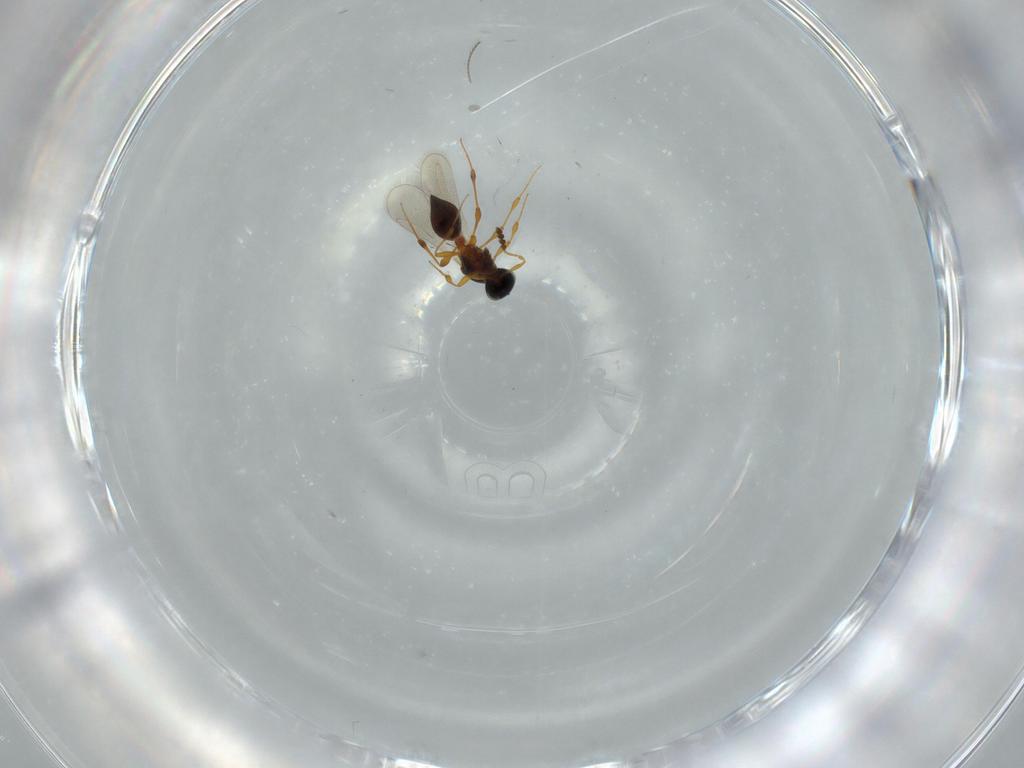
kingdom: Animalia
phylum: Arthropoda
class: Insecta
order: Hymenoptera
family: Platygastridae
